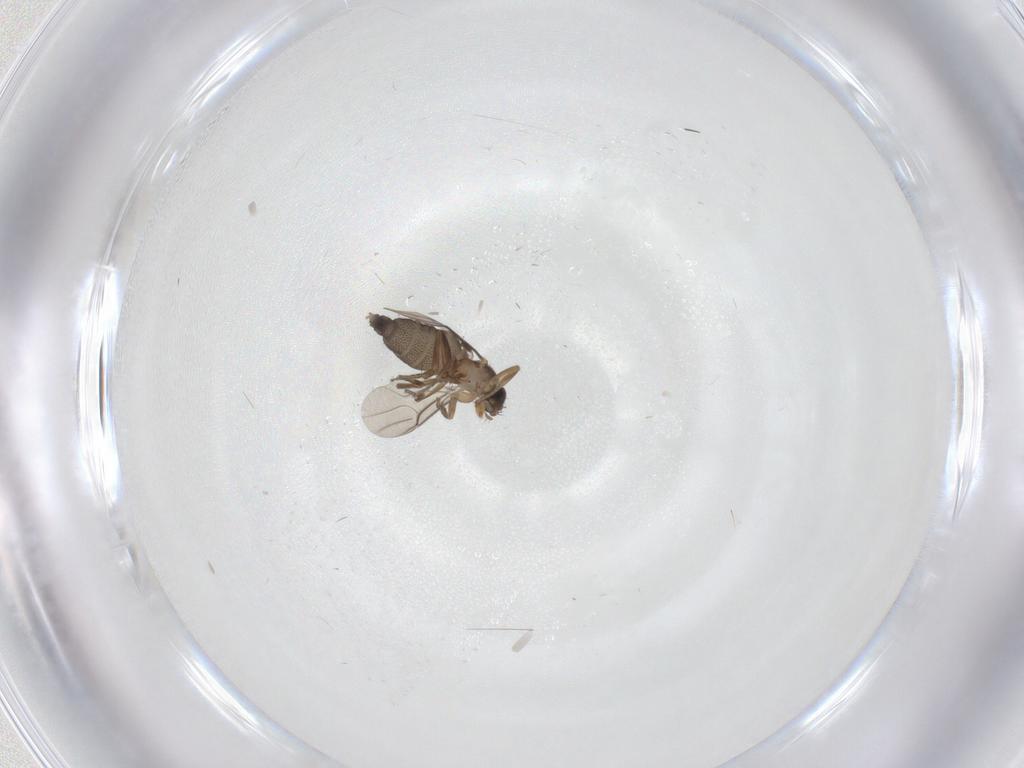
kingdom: Animalia
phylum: Arthropoda
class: Insecta
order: Diptera
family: Phoridae
